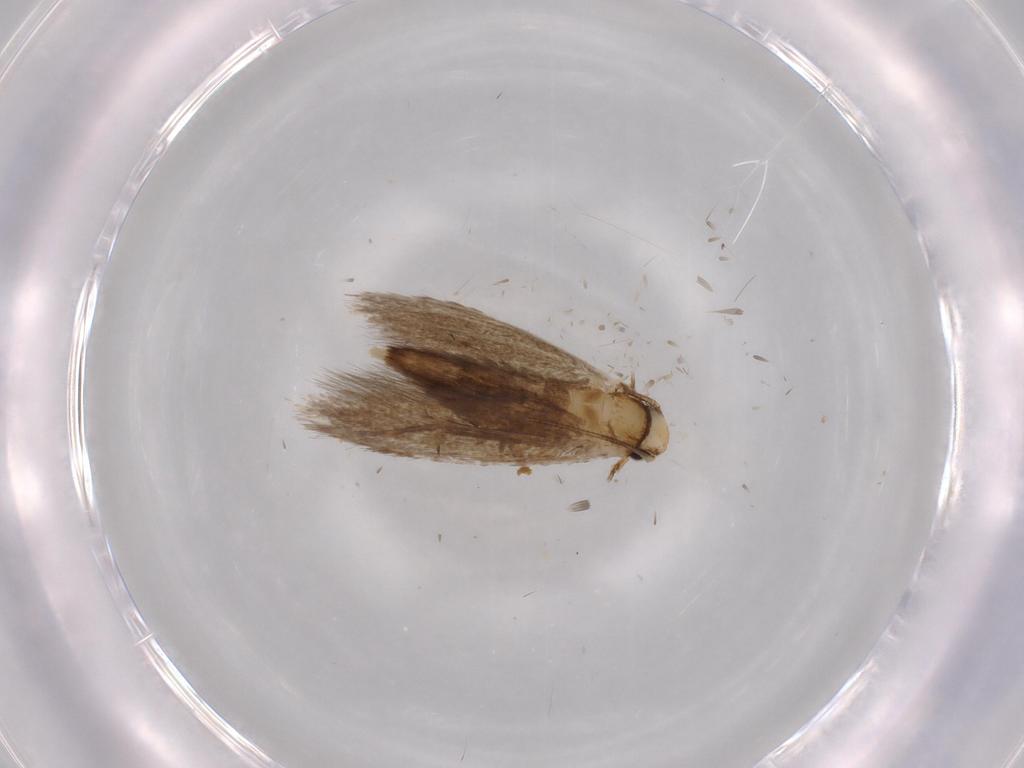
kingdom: Animalia
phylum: Arthropoda
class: Insecta
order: Lepidoptera
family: Tineidae
